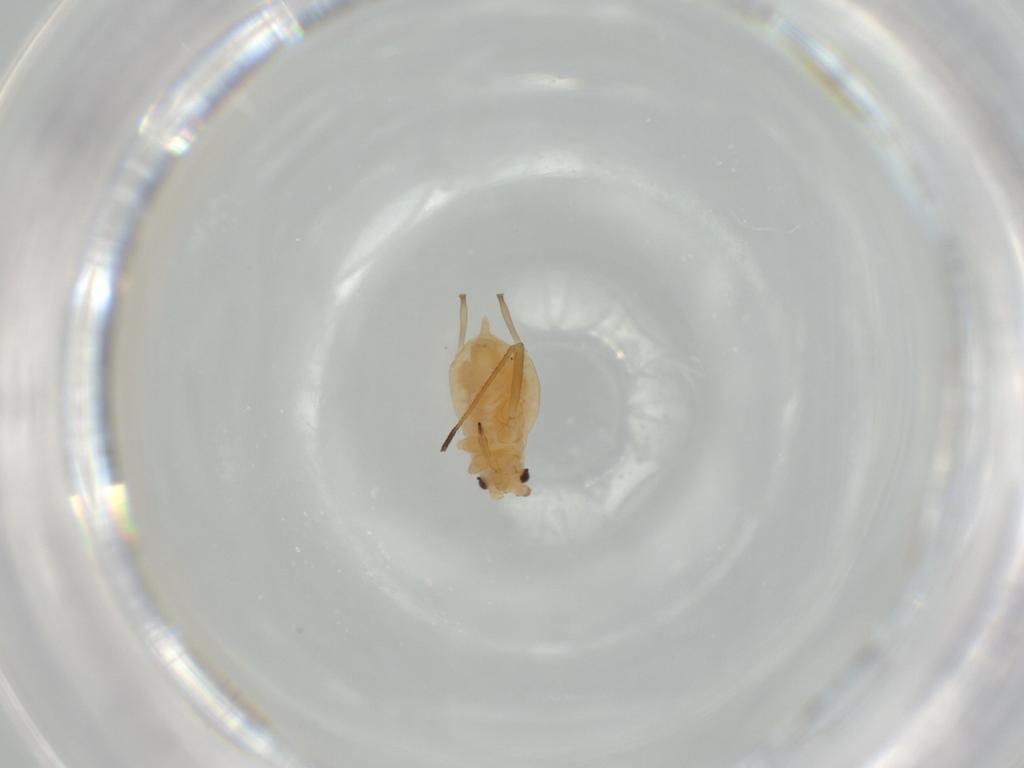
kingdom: Animalia
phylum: Arthropoda
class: Insecta
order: Hemiptera
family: Aphididae
